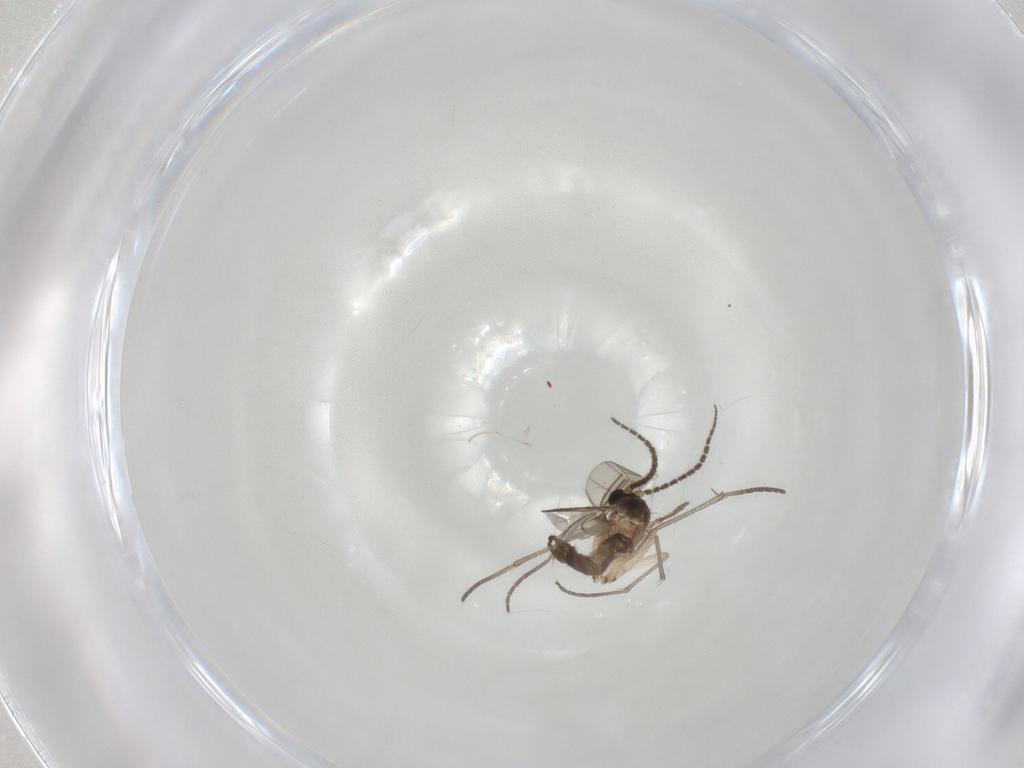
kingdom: Animalia
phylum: Arthropoda
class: Insecta
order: Diptera
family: Sciaridae
